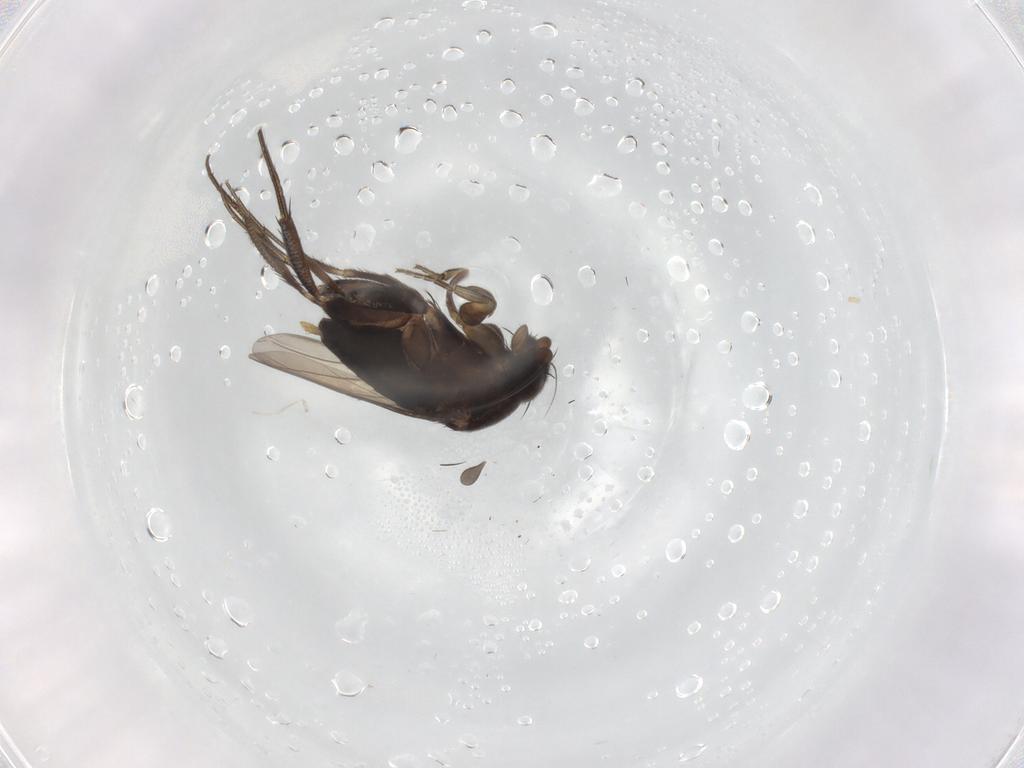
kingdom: Animalia
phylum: Arthropoda
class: Insecta
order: Diptera
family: Phoridae
